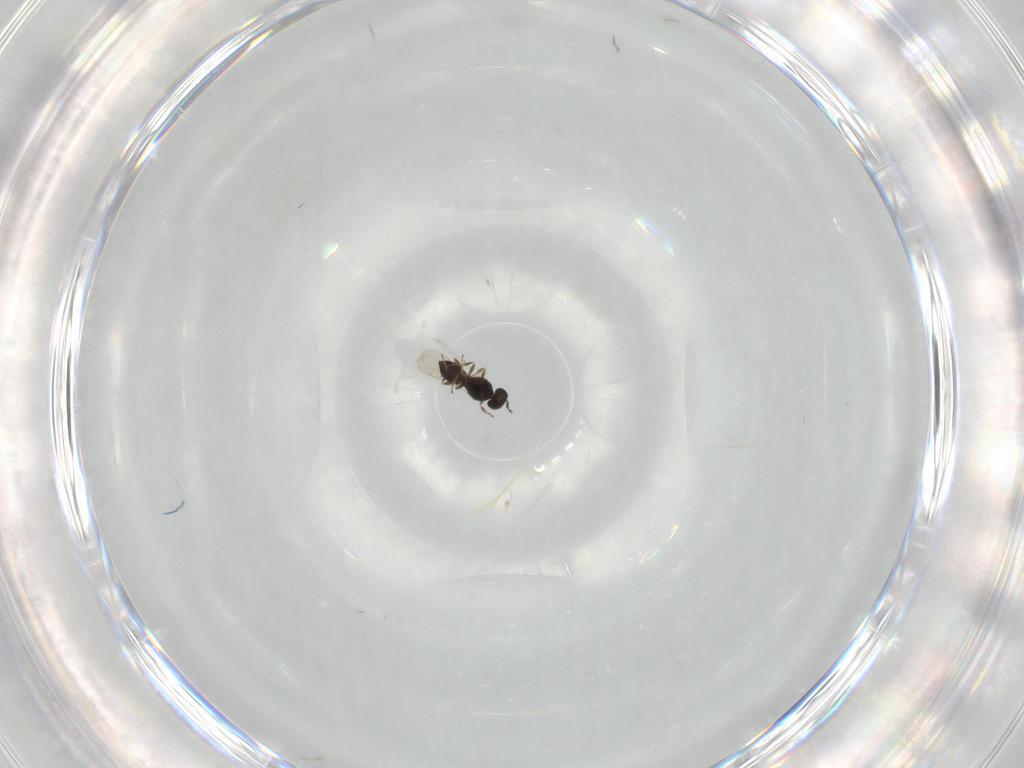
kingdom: Animalia
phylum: Arthropoda
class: Insecta
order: Hymenoptera
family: Scelionidae
